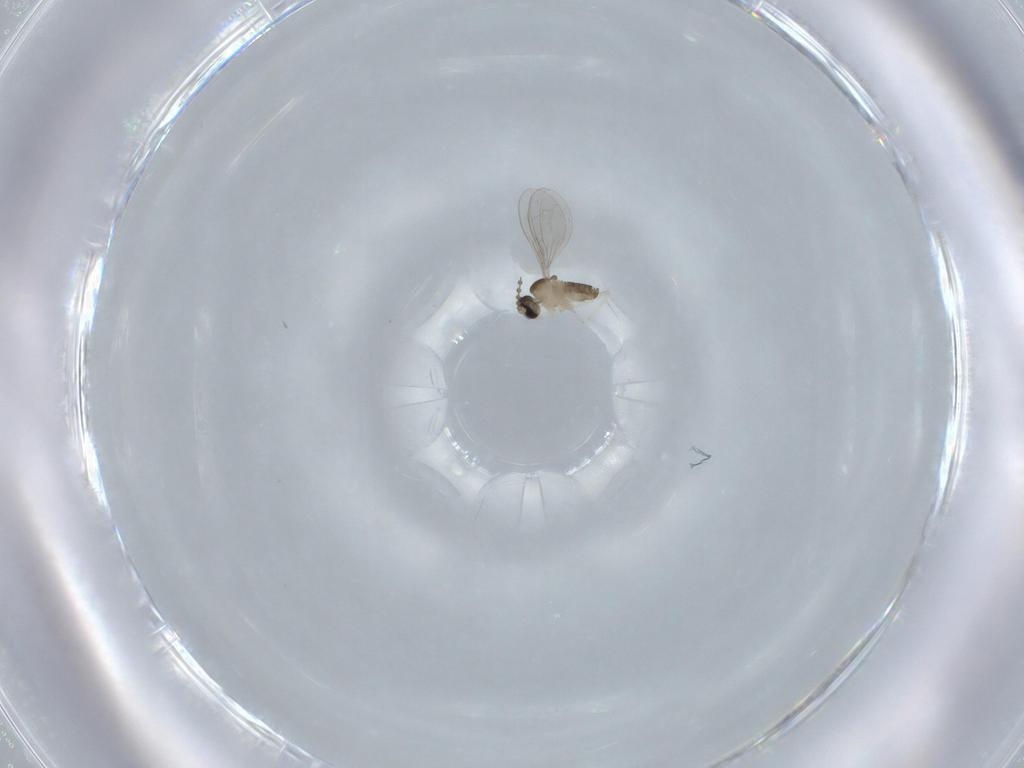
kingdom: Animalia
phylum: Arthropoda
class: Insecta
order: Diptera
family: Cecidomyiidae
